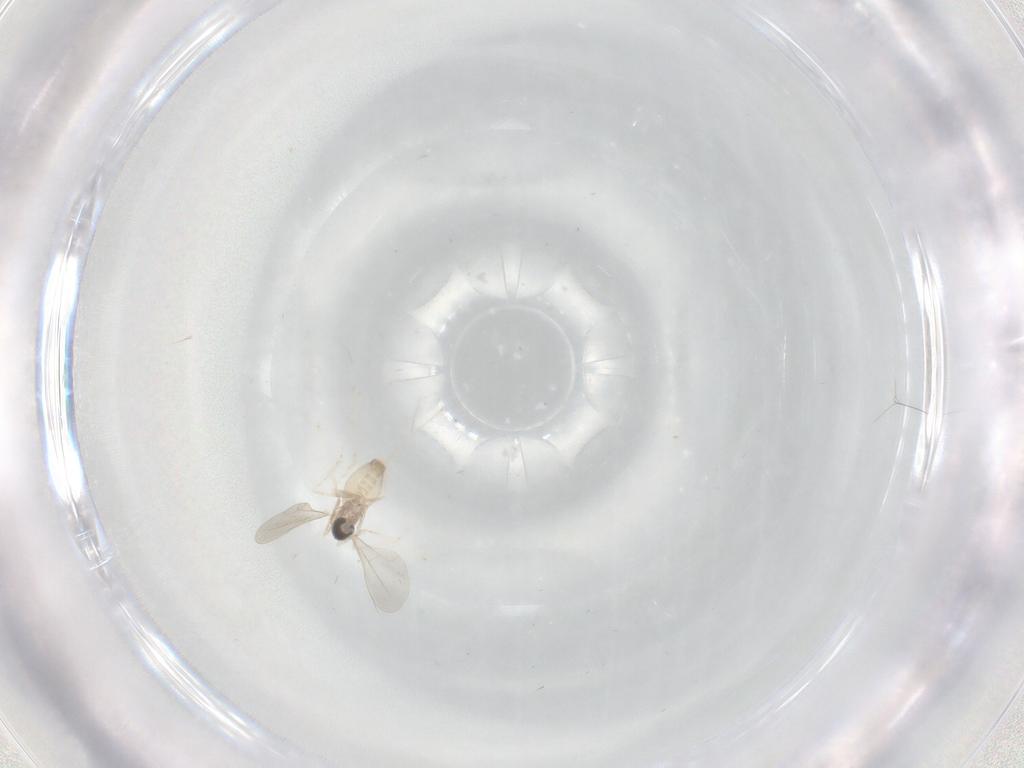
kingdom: Animalia
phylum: Arthropoda
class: Insecta
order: Diptera
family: Cecidomyiidae
